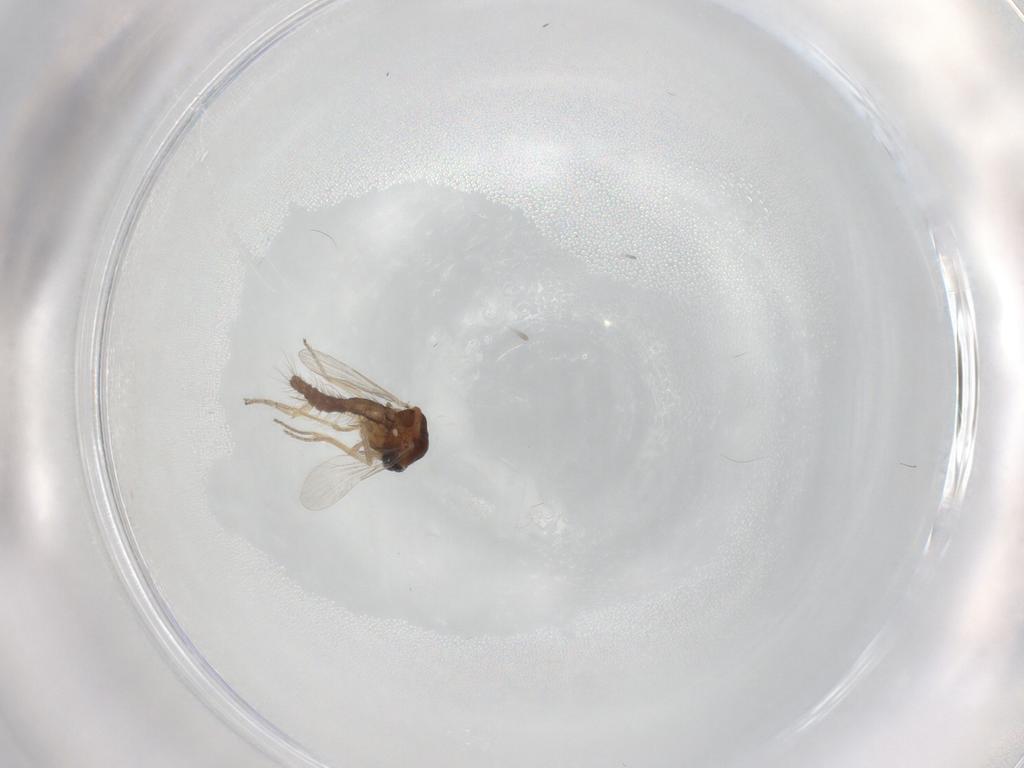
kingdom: Animalia
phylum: Arthropoda
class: Insecta
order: Diptera
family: Ceratopogonidae
